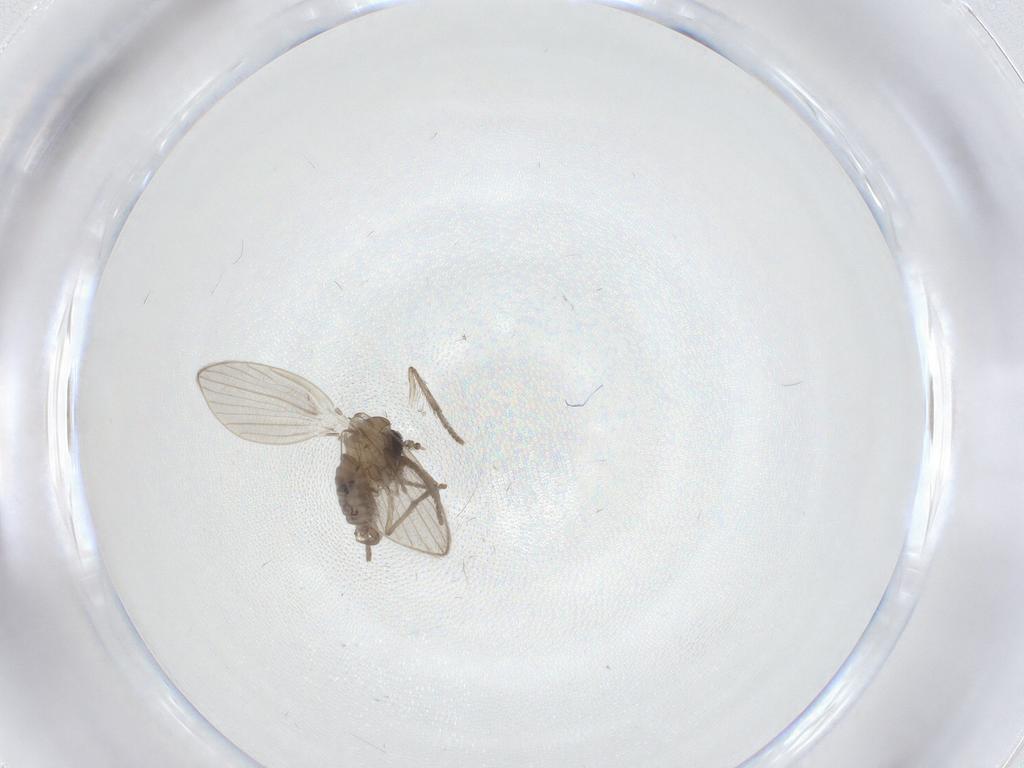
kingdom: Animalia
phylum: Arthropoda
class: Insecta
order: Diptera
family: Psychodidae
